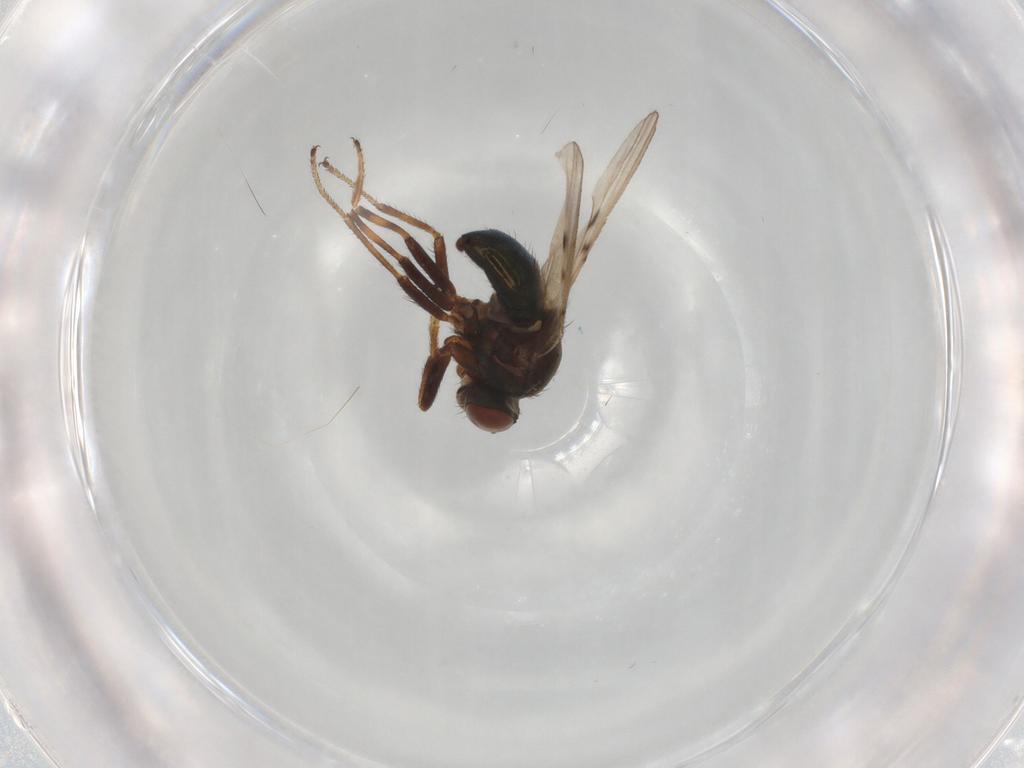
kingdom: Animalia
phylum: Arthropoda
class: Insecta
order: Diptera
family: Ephydridae
